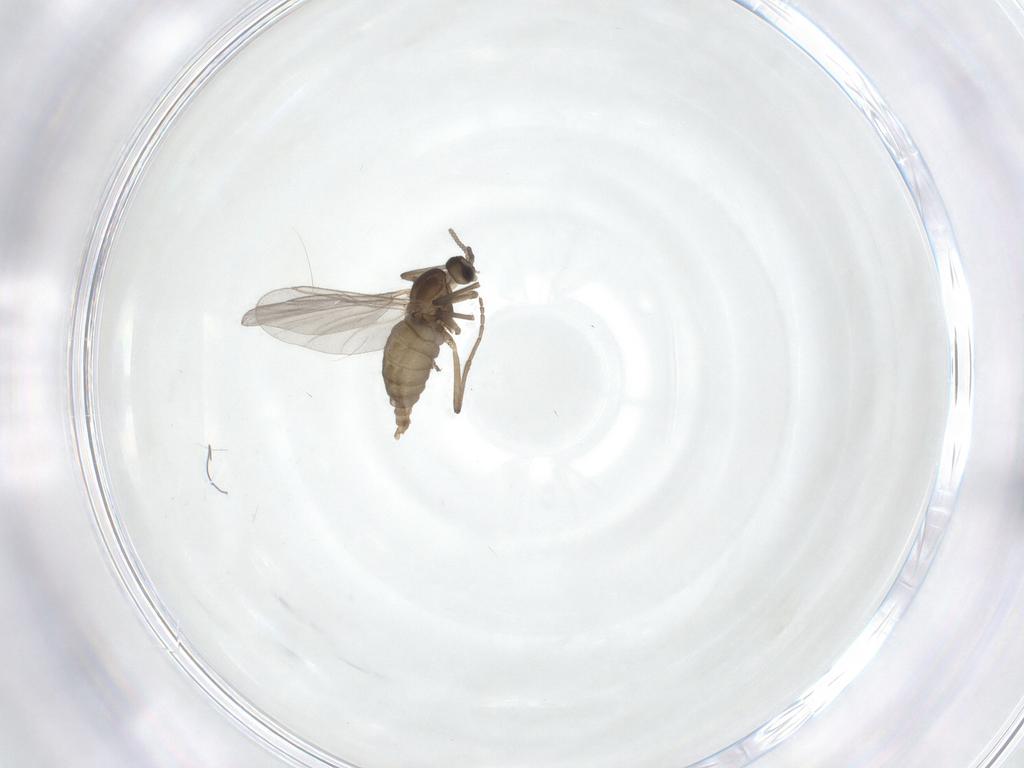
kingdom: Animalia
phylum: Arthropoda
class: Insecta
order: Diptera
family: Cecidomyiidae
